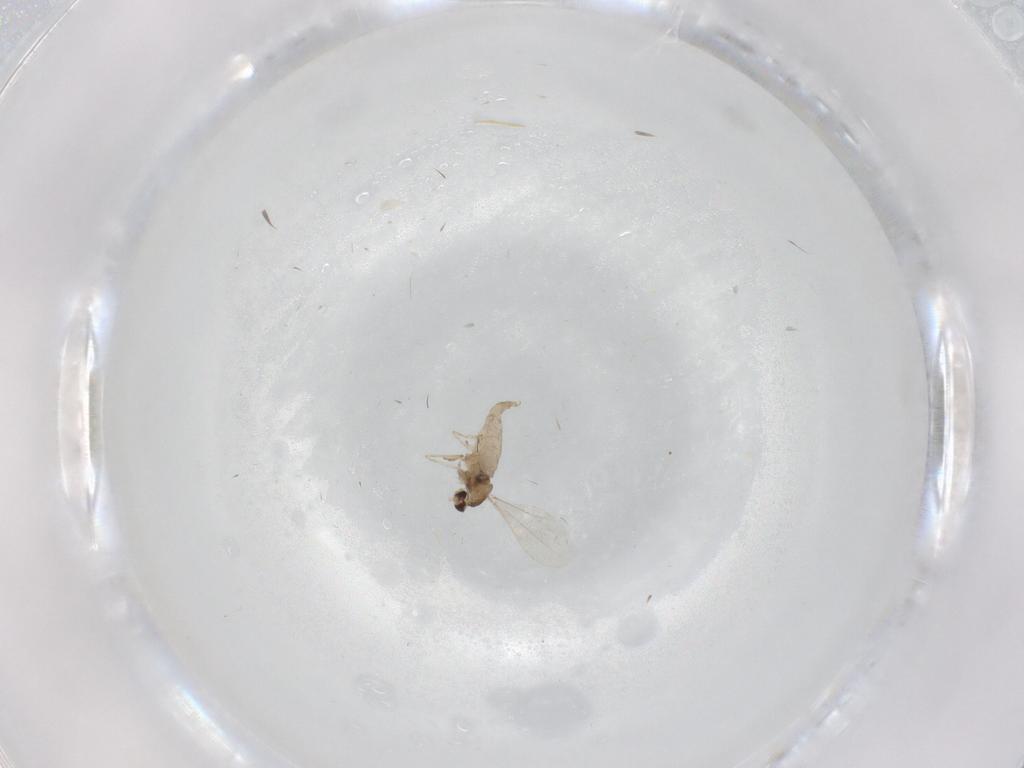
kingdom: Animalia
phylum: Arthropoda
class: Insecta
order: Diptera
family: Cecidomyiidae
